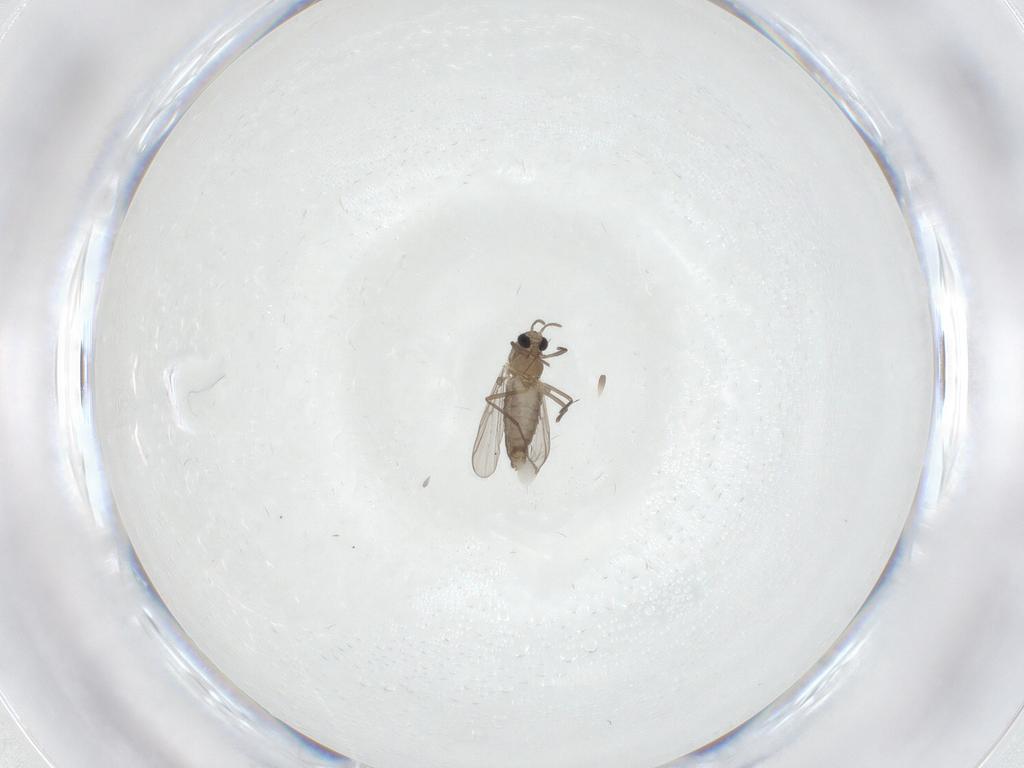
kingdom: Animalia
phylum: Arthropoda
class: Insecta
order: Diptera
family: Chironomidae
